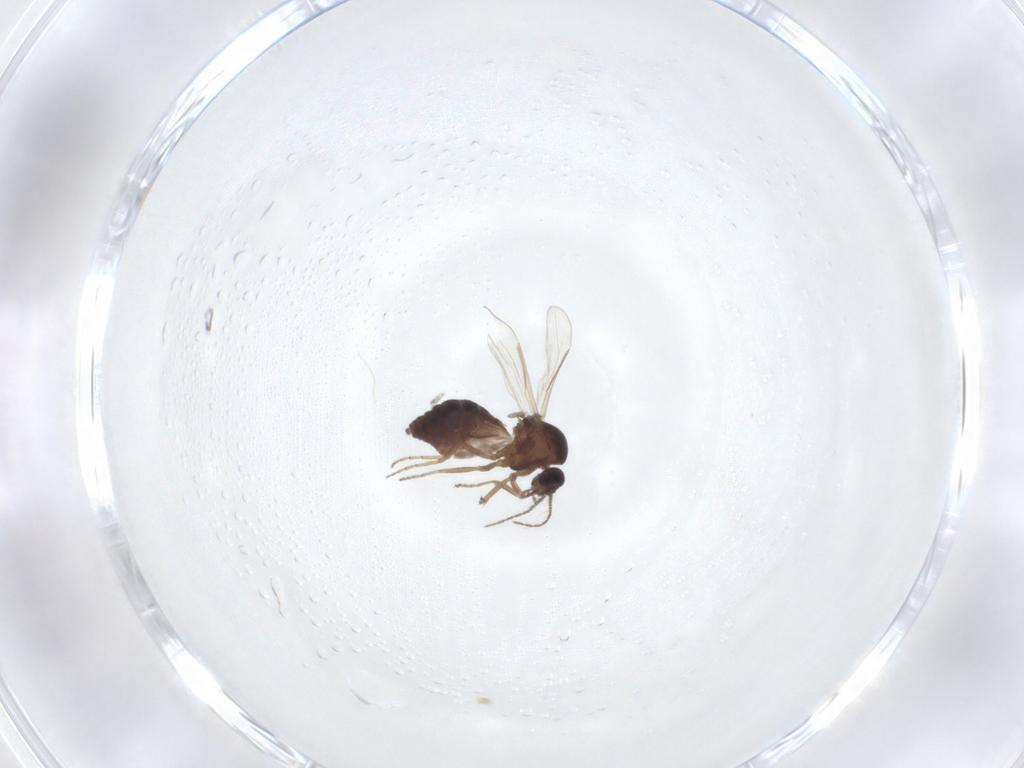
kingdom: Animalia
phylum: Arthropoda
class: Insecta
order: Diptera
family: Ceratopogonidae
